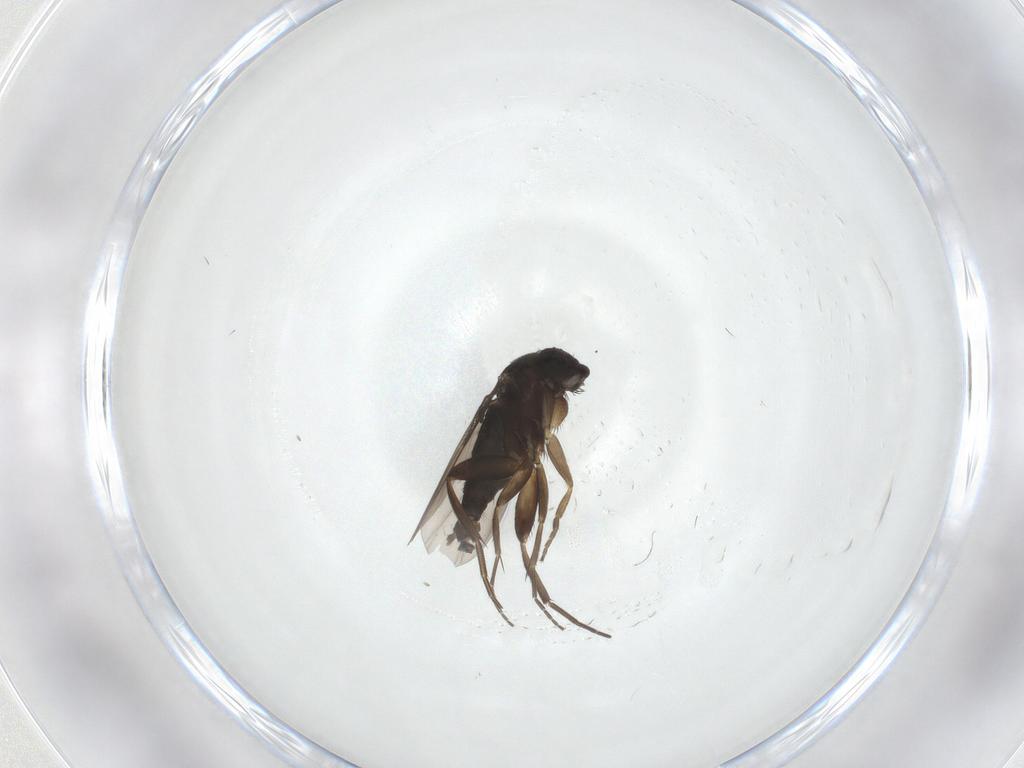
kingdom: Animalia
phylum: Arthropoda
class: Insecta
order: Diptera
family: Phoridae
